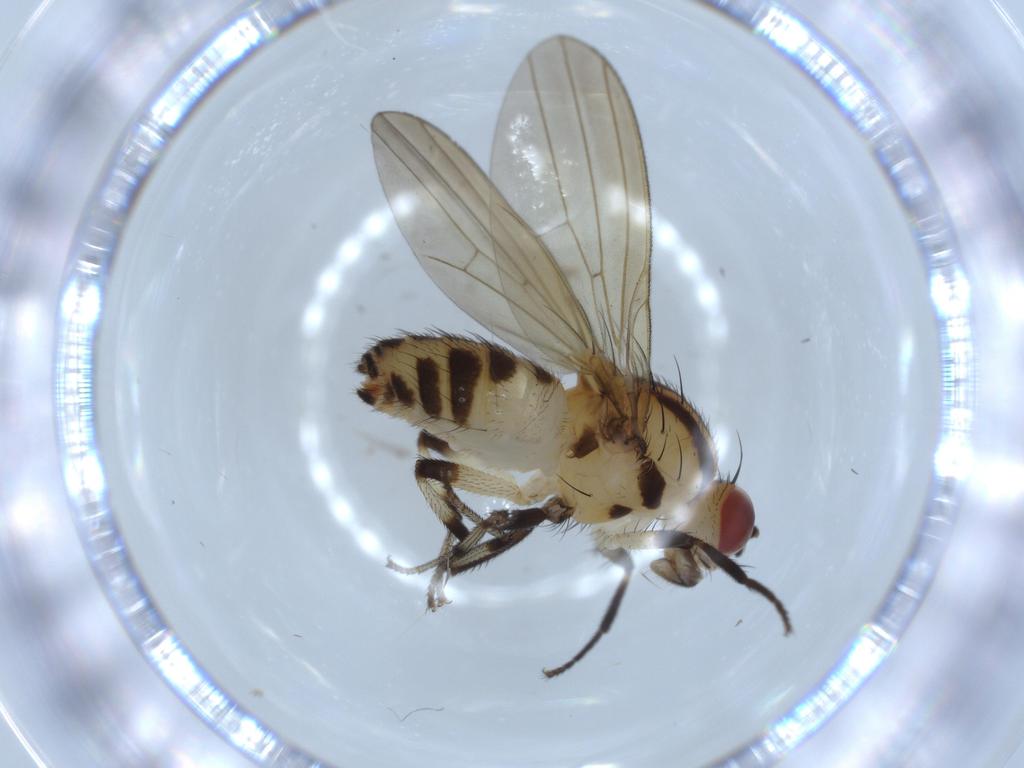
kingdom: Animalia
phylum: Arthropoda
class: Insecta
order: Diptera
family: Lauxaniidae
